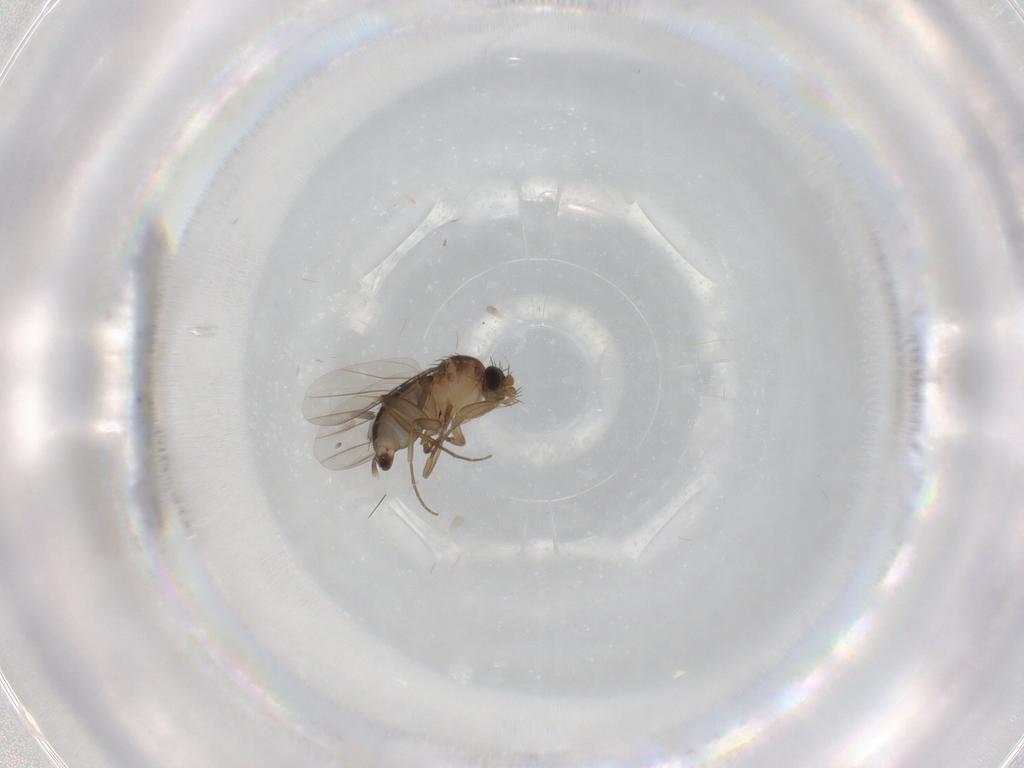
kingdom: Animalia
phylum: Arthropoda
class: Insecta
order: Diptera
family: Phoridae
